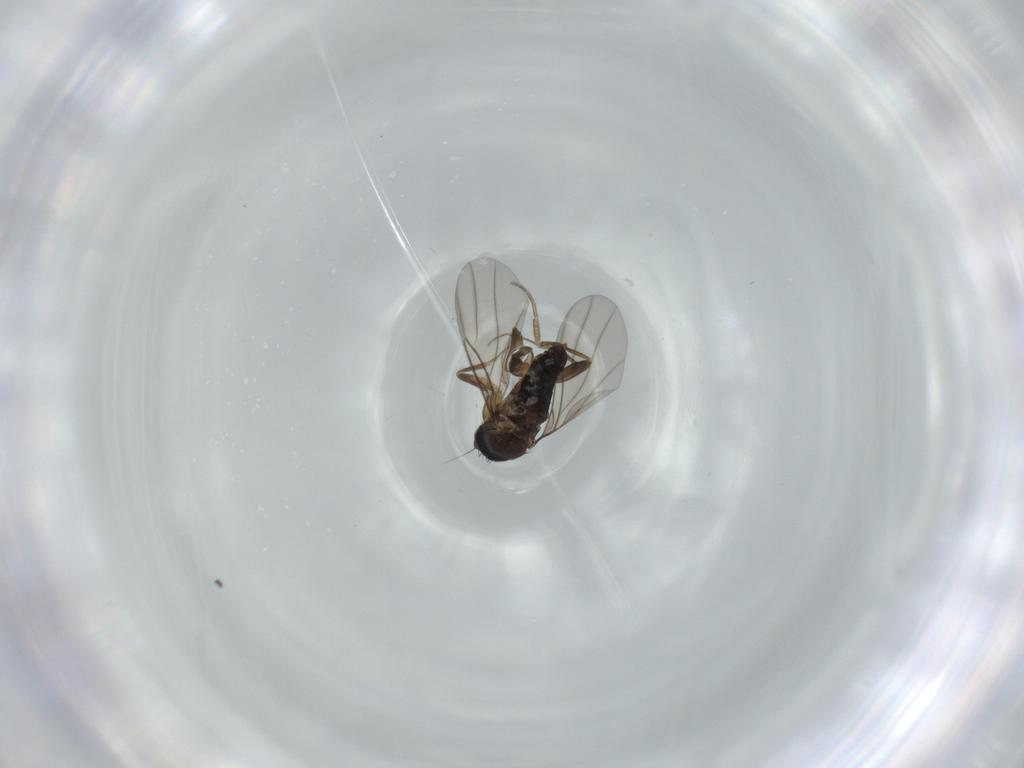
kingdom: Animalia
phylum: Arthropoda
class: Insecta
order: Diptera
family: Phoridae
